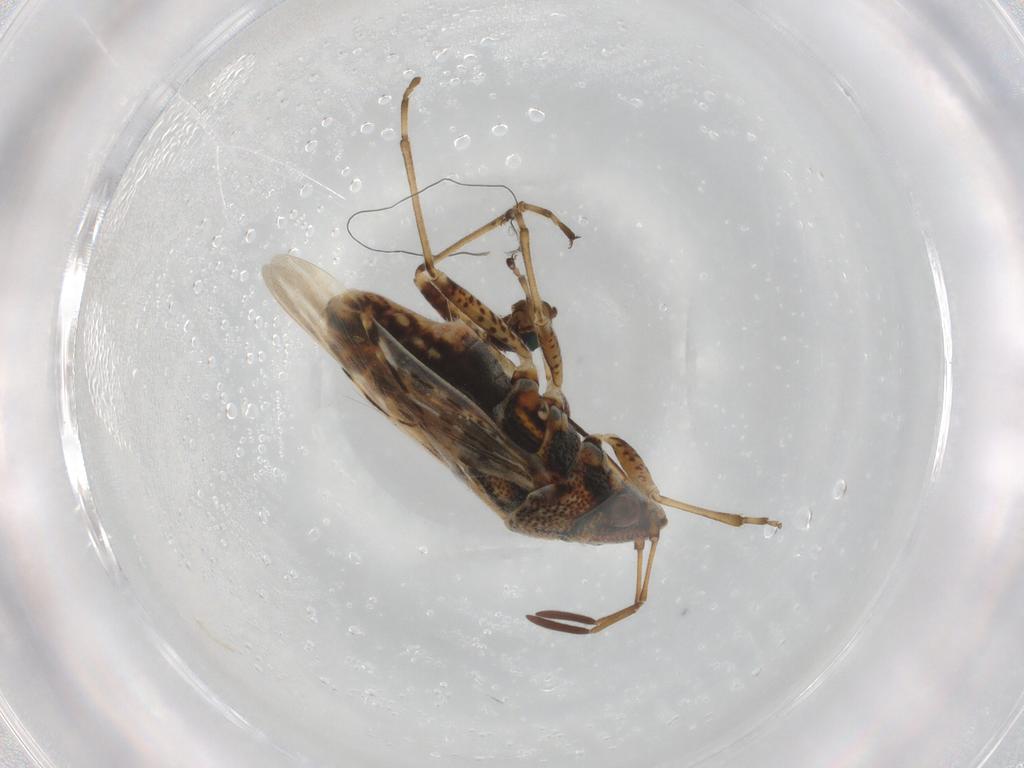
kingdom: Animalia
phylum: Arthropoda
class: Insecta
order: Hemiptera
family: Lygaeidae
